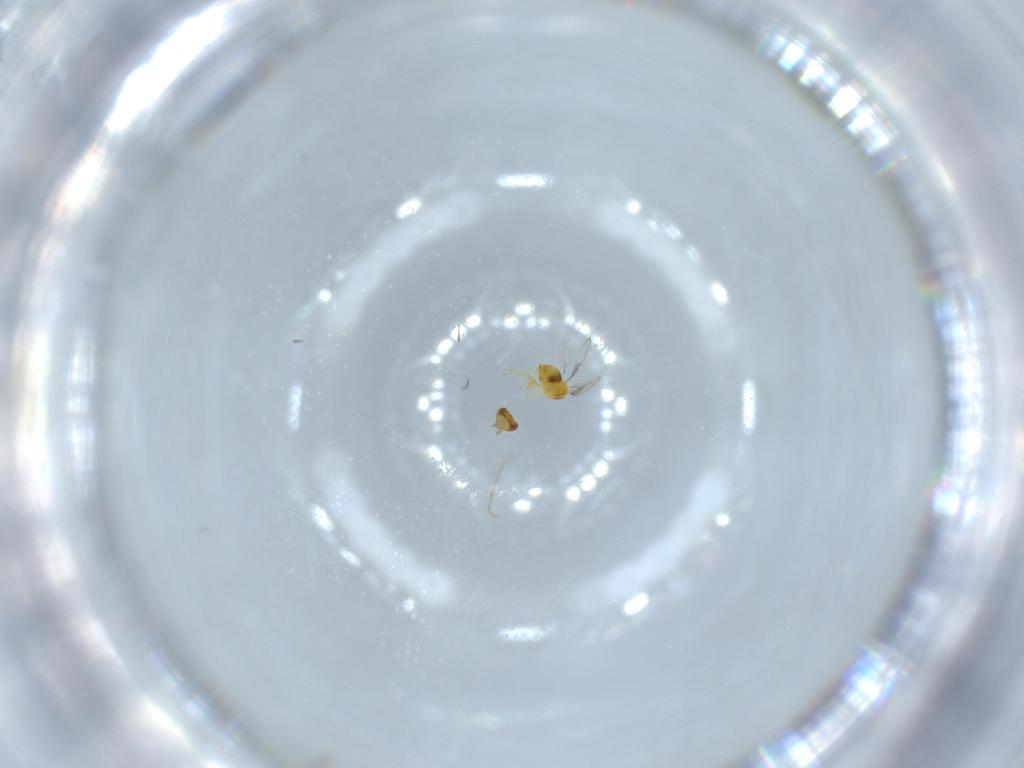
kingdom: Animalia
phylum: Arthropoda
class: Insecta
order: Hymenoptera
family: Trichogrammatidae
